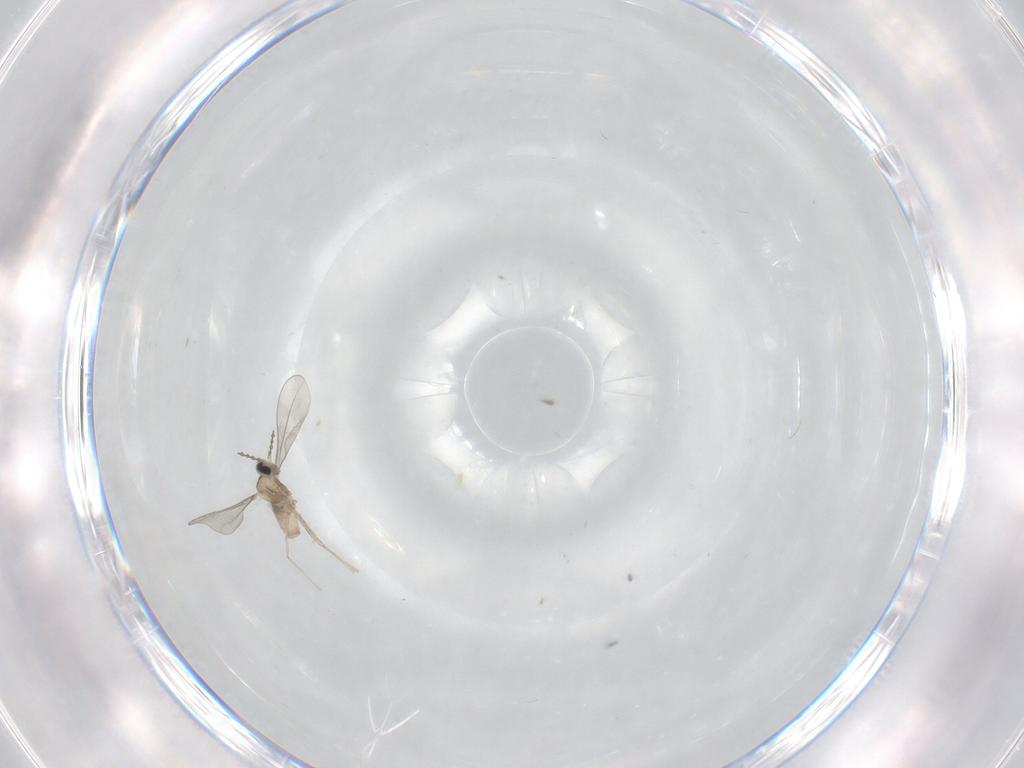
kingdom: Animalia
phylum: Arthropoda
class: Insecta
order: Diptera
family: Cecidomyiidae
